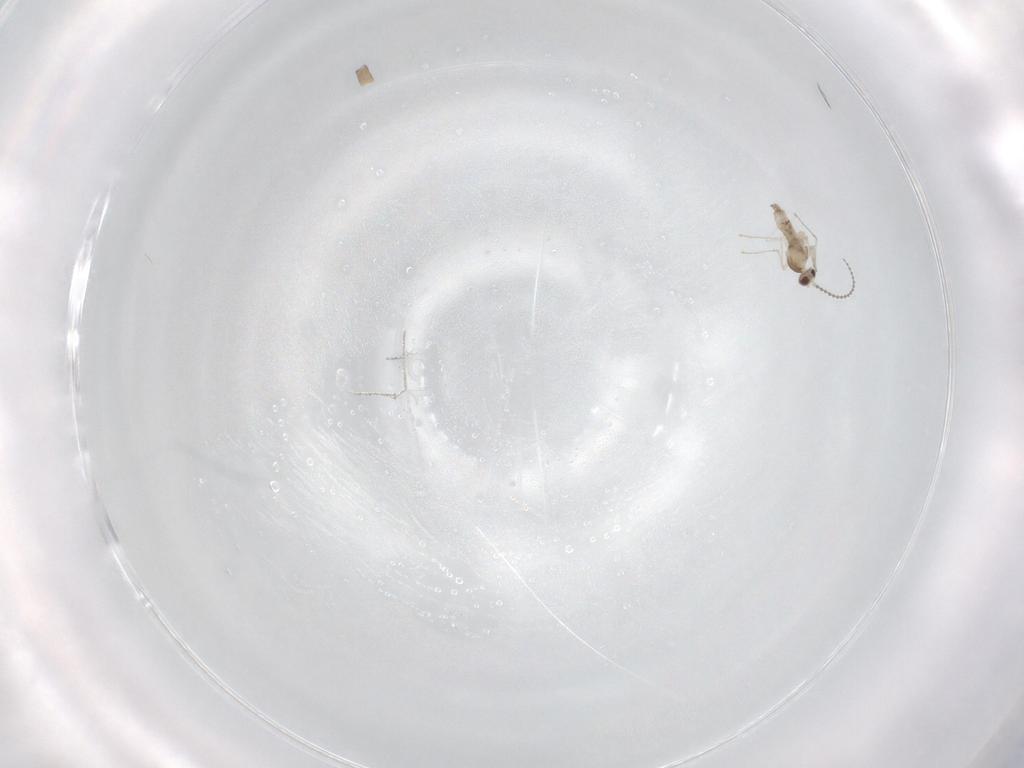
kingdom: Animalia
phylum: Arthropoda
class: Insecta
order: Diptera
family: Cecidomyiidae
